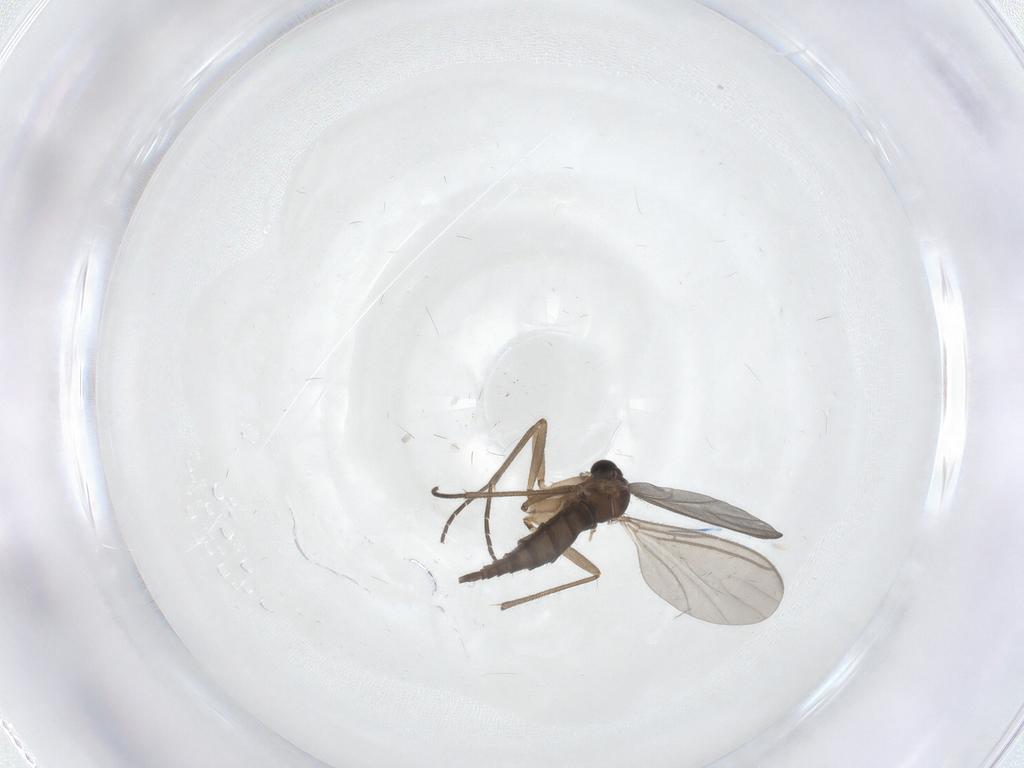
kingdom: Animalia
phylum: Arthropoda
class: Insecta
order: Diptera
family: Sciaridae
